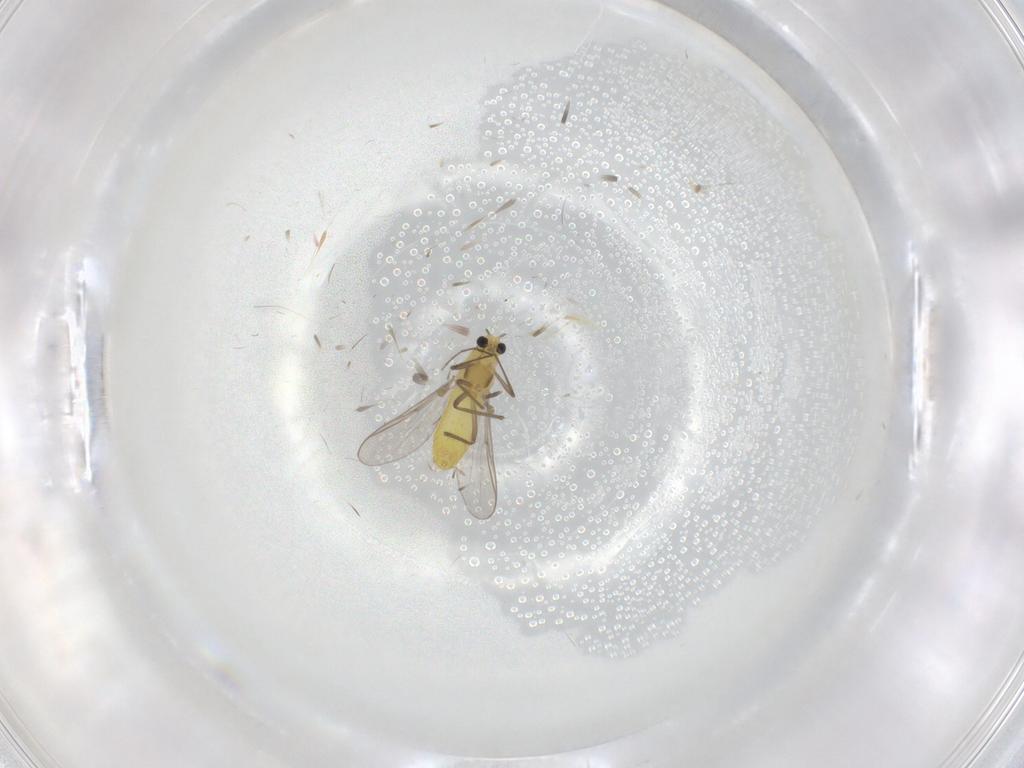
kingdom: Animalia
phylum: Arthropoda
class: Insecta
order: Diptera
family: Chironomidae
